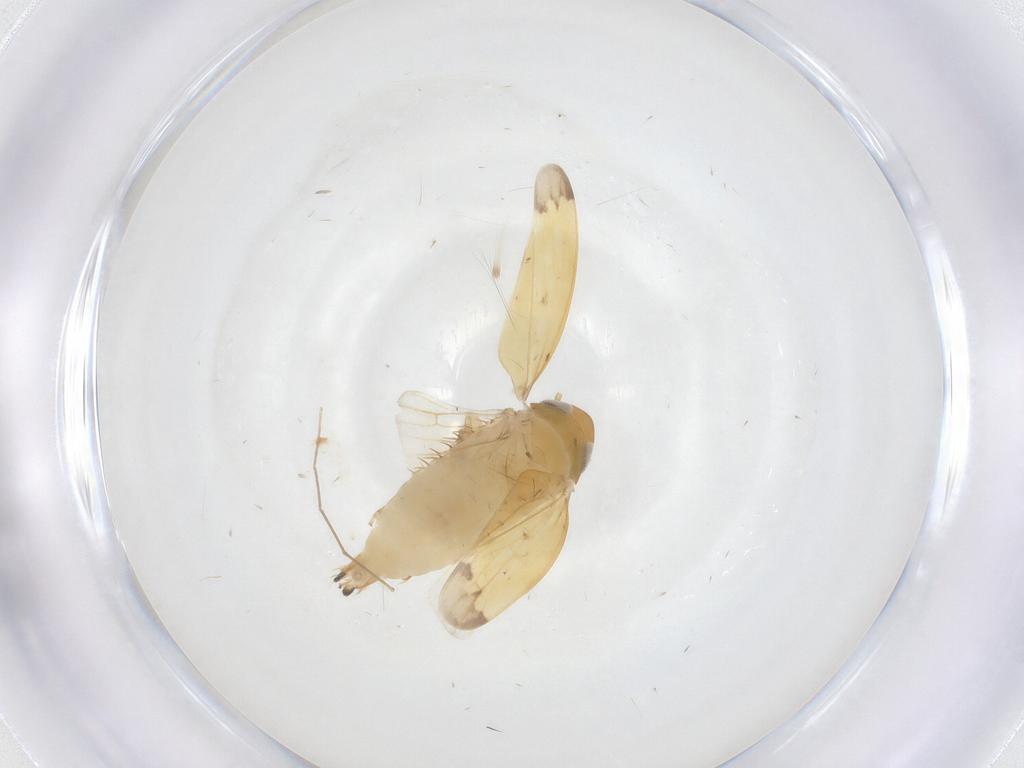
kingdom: Animalia
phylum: Arthropoda
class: Insecta
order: Hemiptera
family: Cicadellidae
